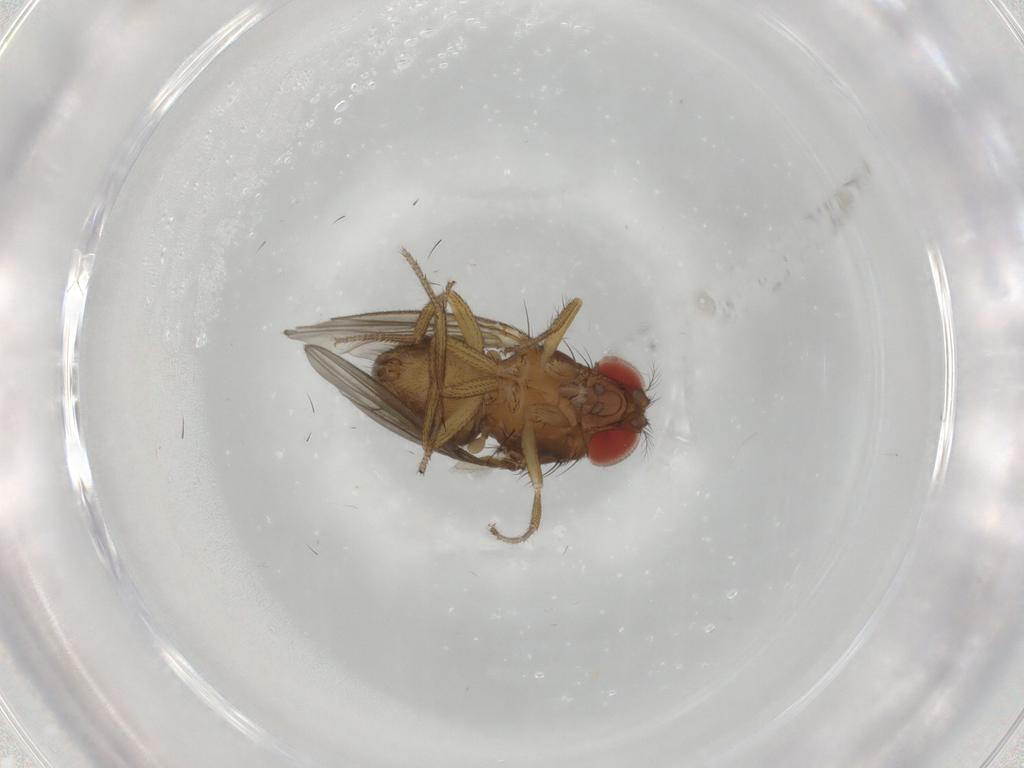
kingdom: Animalia
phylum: Arthropoda
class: Insecta
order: Diptera
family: Drosophilidae
